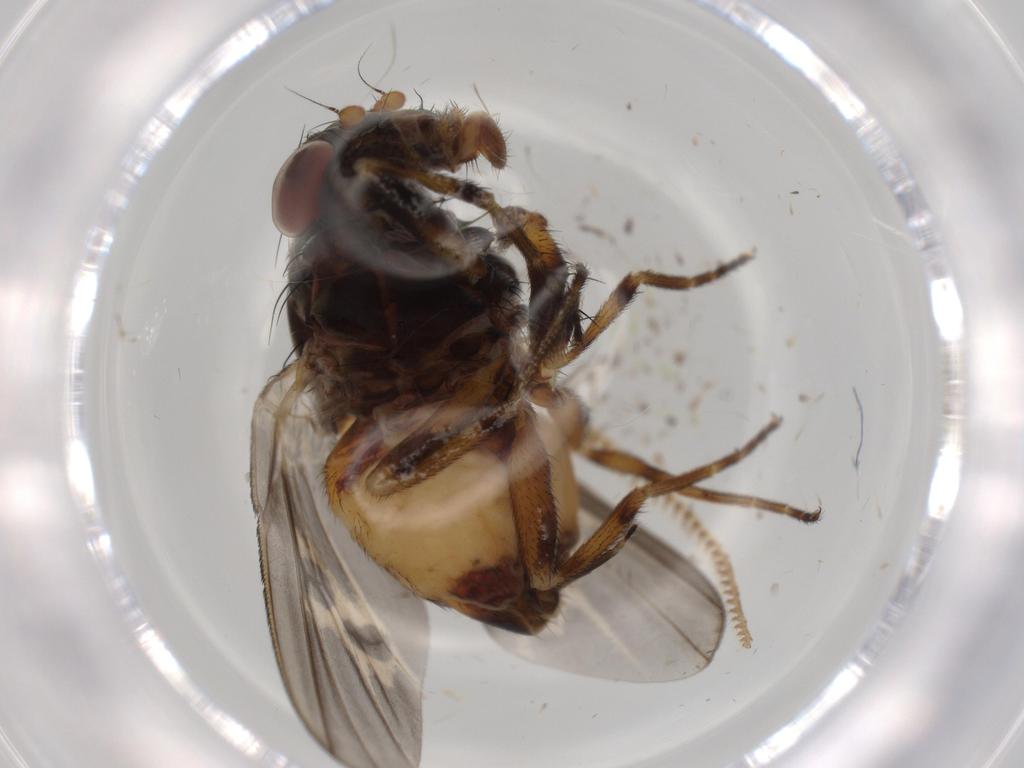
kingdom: Animalia
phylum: Arthropoda
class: Insecta
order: Diptera
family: Sciaridae
